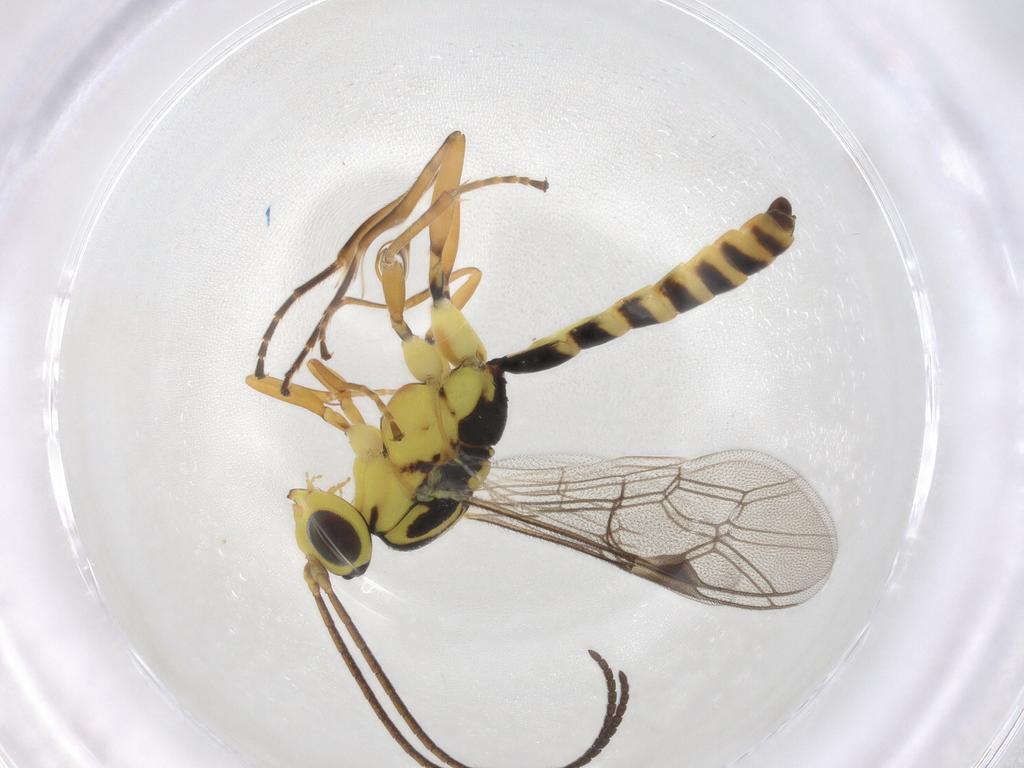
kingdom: Animalia
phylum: Arthropoda
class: Insecta
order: Hymenoptera
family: Ichneumonidae
